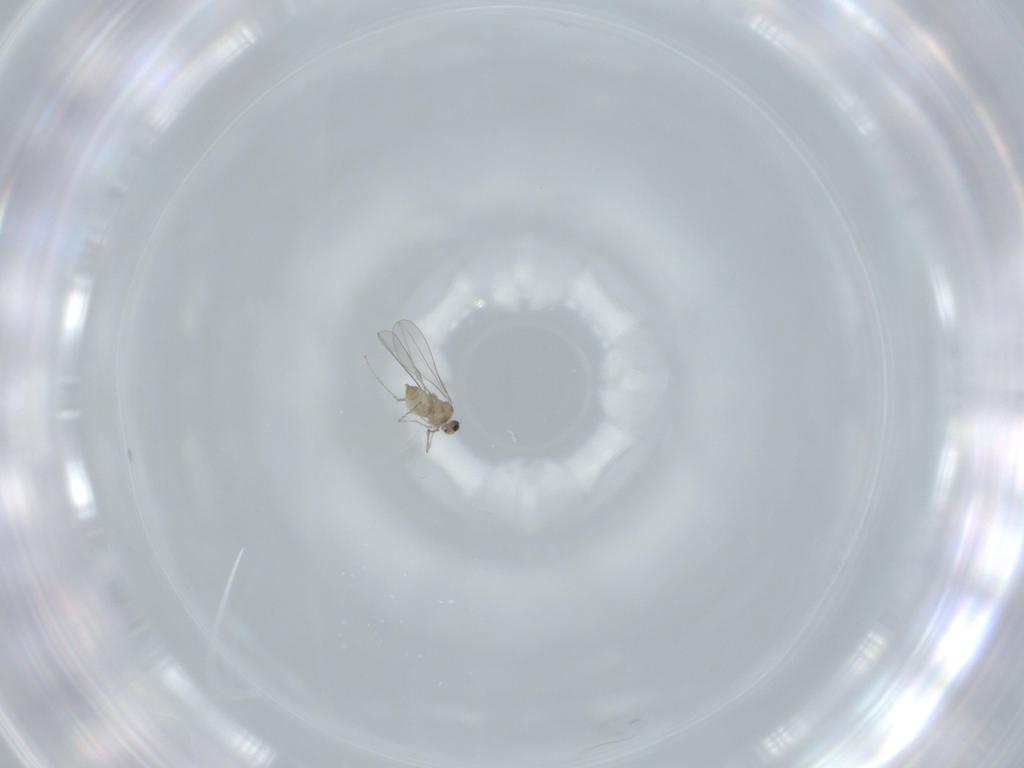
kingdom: Animalia
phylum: Arthropoda
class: Insecta
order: Diptera
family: Cecidomyiidae
